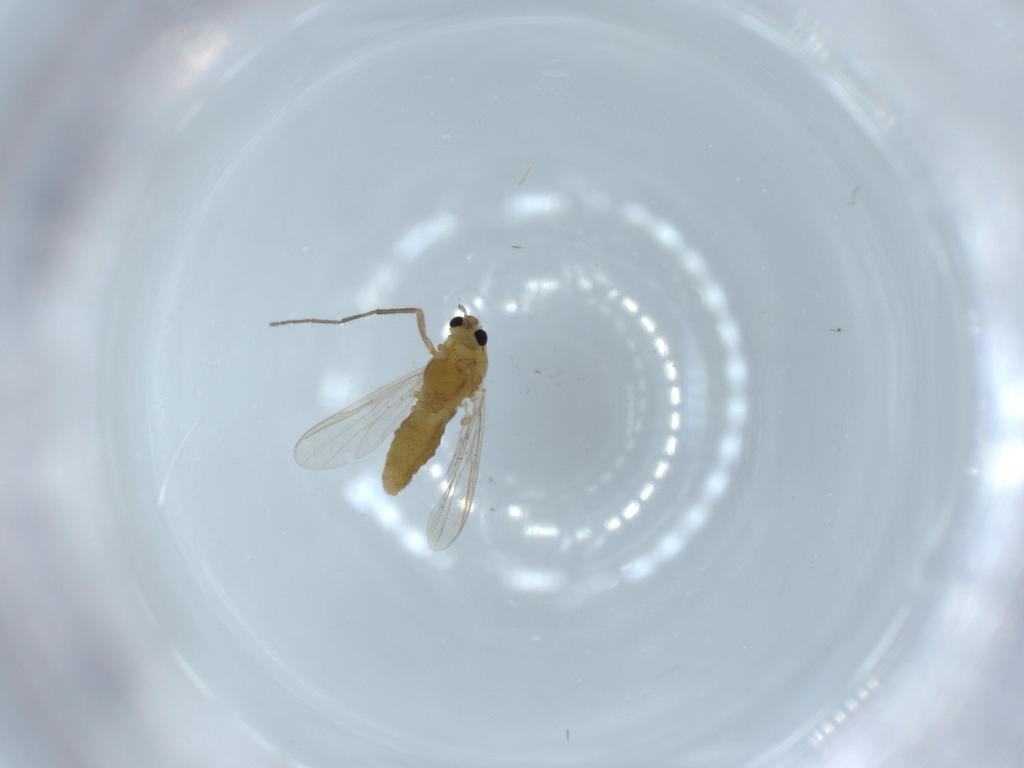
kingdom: Animalia
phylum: Arthropoda
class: Insecta
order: Diptera
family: Chironomidae
